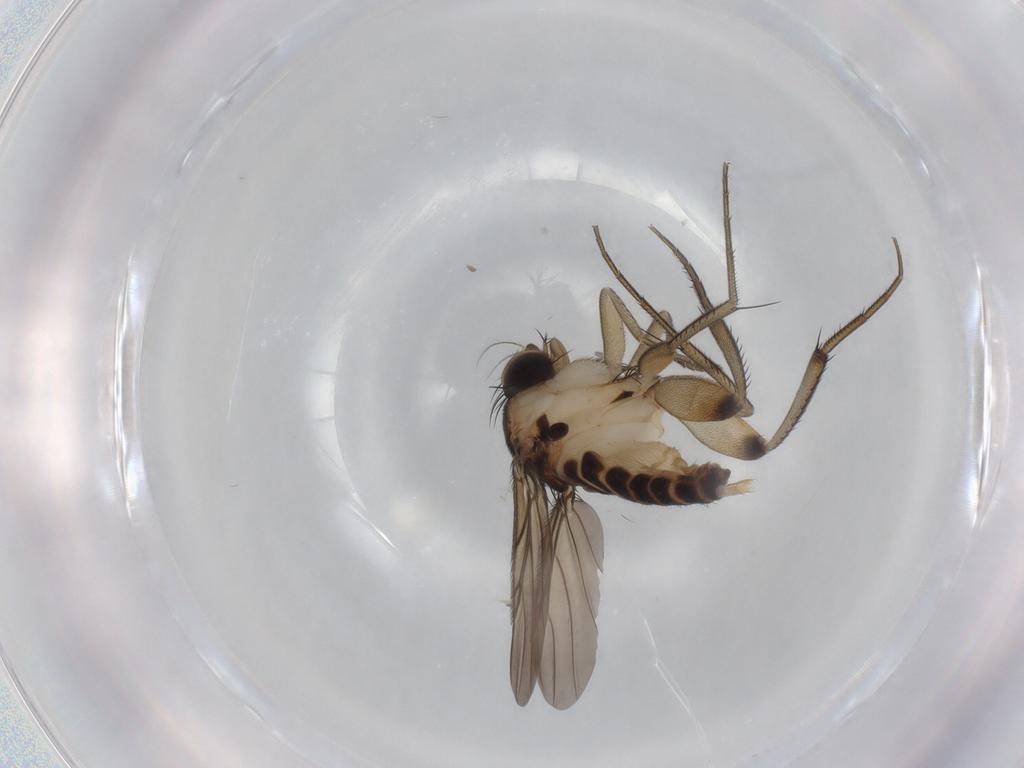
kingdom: Animalia
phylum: Arthropoda
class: Insecta
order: Diptera
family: Phoridae
